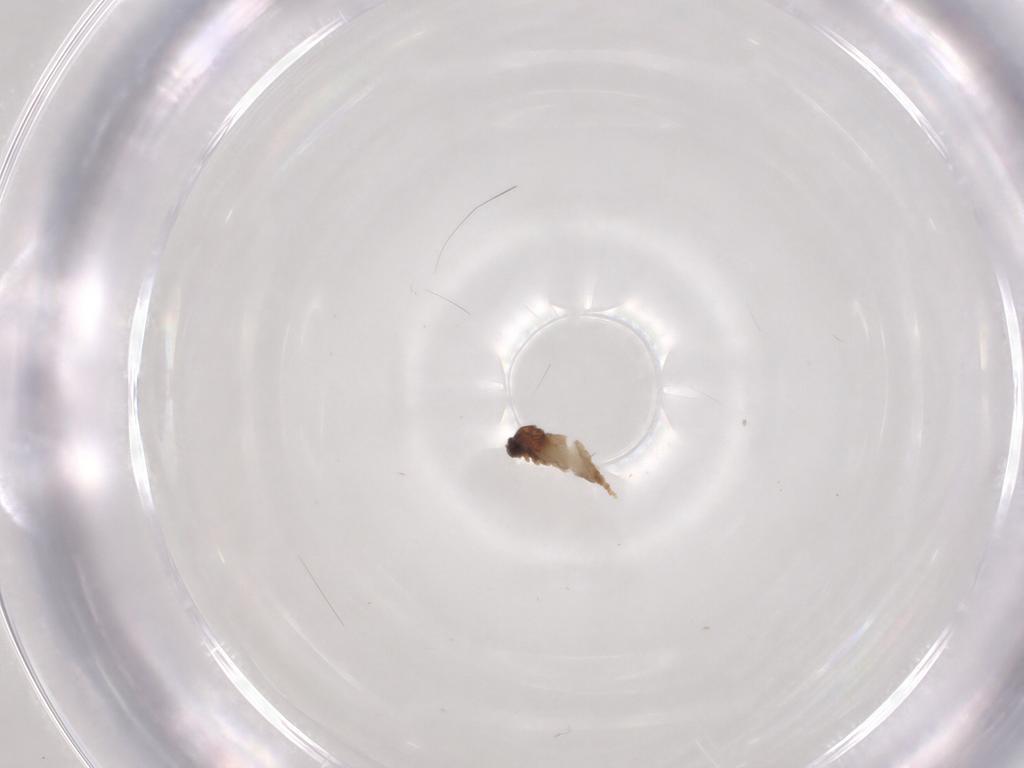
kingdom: Animalia
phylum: Arthropoda
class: Insecta
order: Diptera
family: Cecidomyiidae
